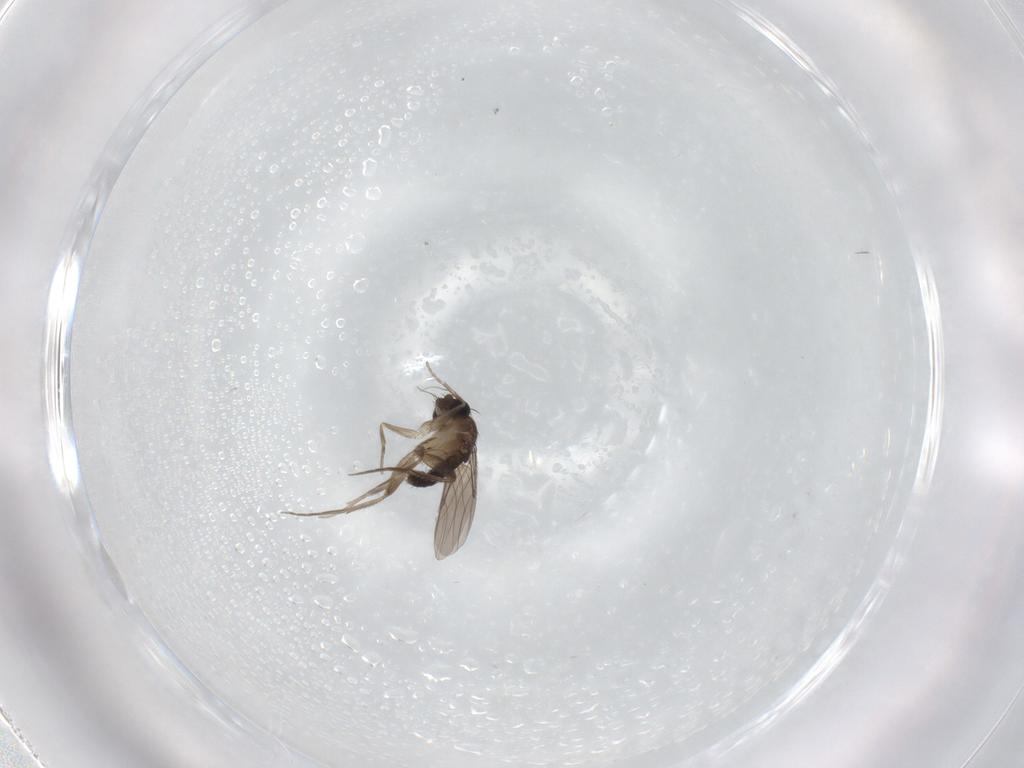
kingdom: Animalia
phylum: Arthropoda
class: Insecta
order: Diptera
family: Phoridae
